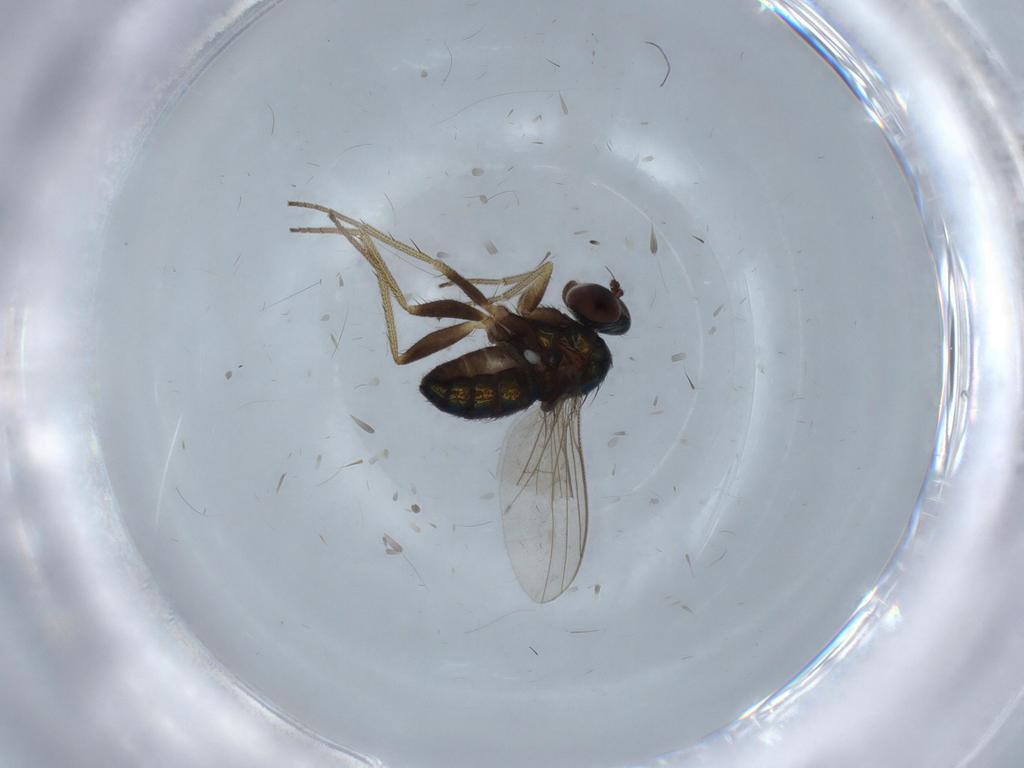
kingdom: Animalia
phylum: Arthropoda
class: Insecta
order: Diptera
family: Dolichopodidae
